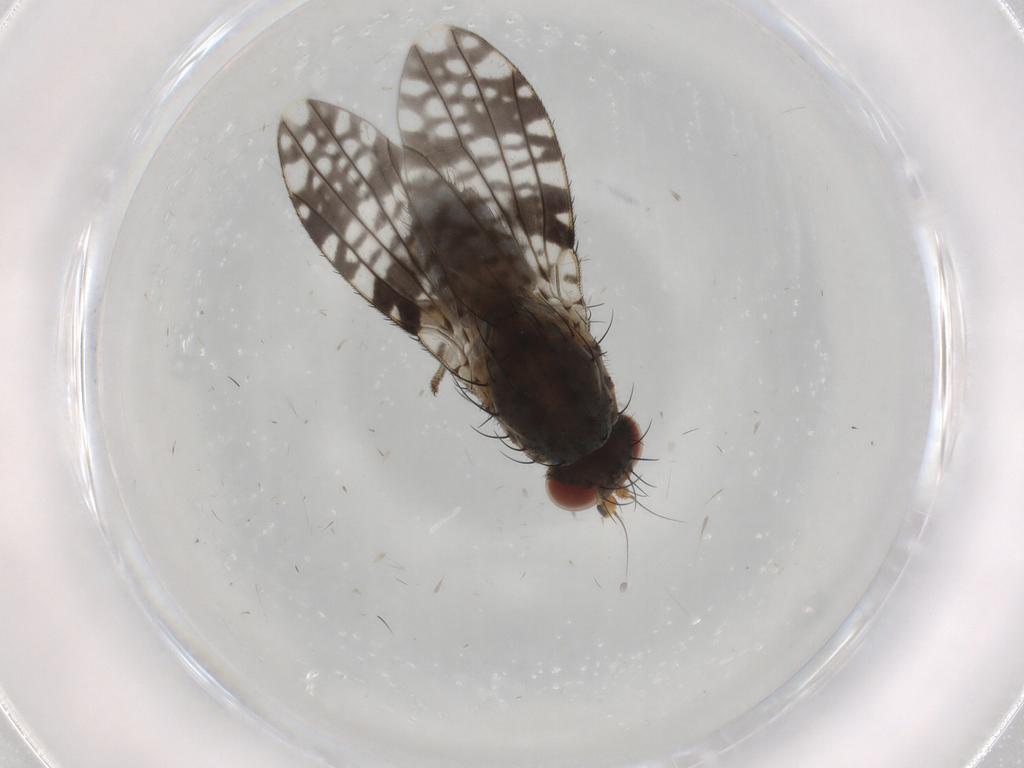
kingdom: Animalia
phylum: Arthropoda
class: Insecta
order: Diptera
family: Tephritidae
